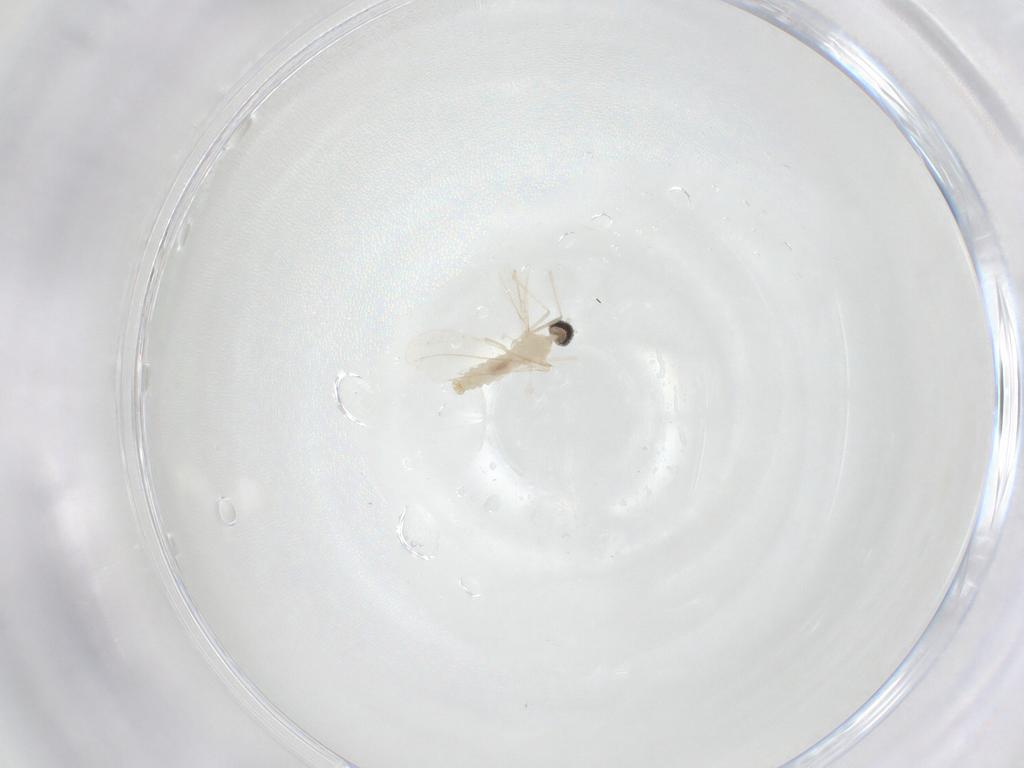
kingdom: Animalia
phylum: Arthropoda
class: Insecta
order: Diptera
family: Cecidomyiidae
